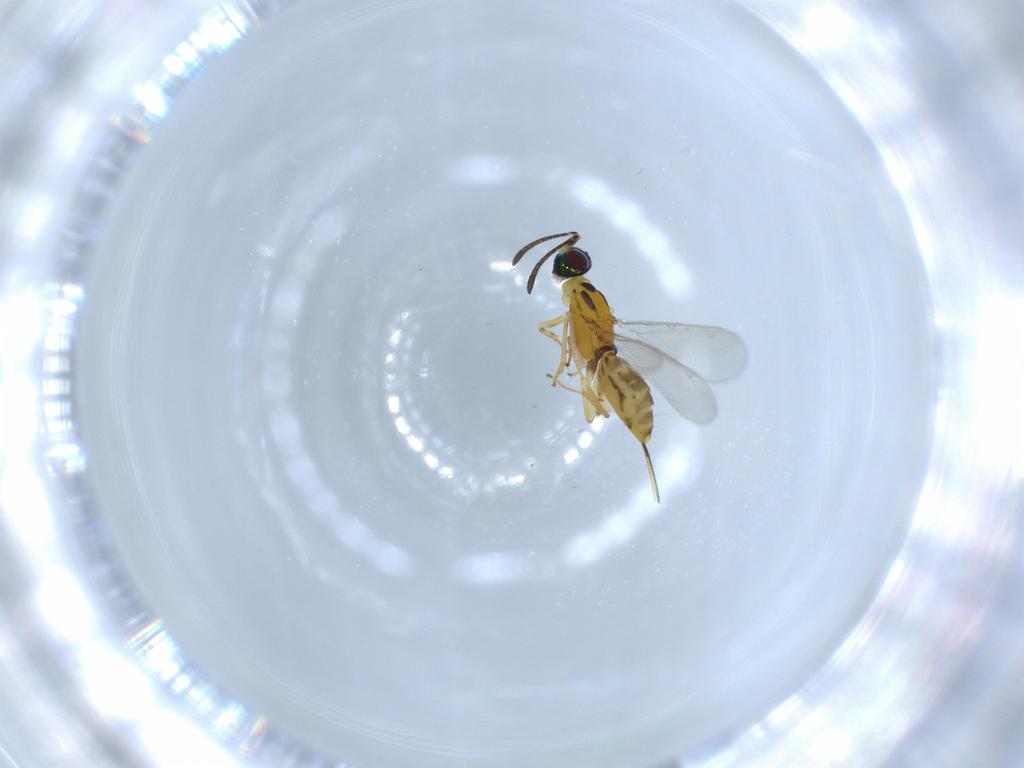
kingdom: Animalia
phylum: Arthropoda
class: Insecta
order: Hymenoptera
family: Eupelmidae
